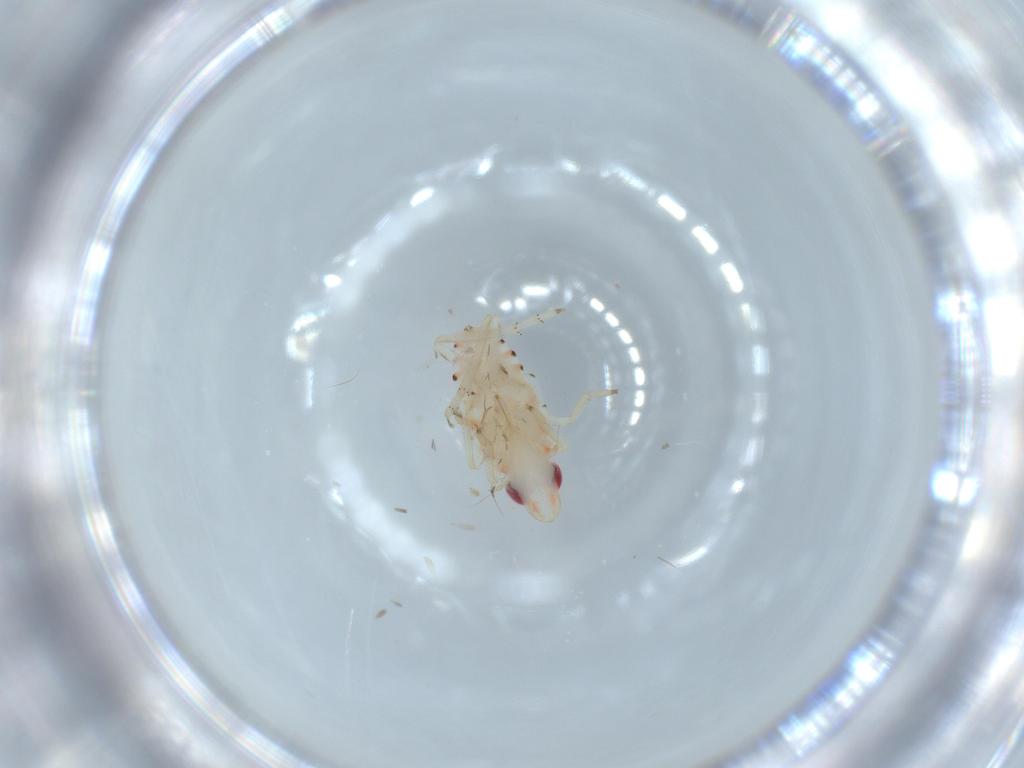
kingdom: Animalia
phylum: Arthropoda
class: Insecta
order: Hemiptera
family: Tropiduchidae
